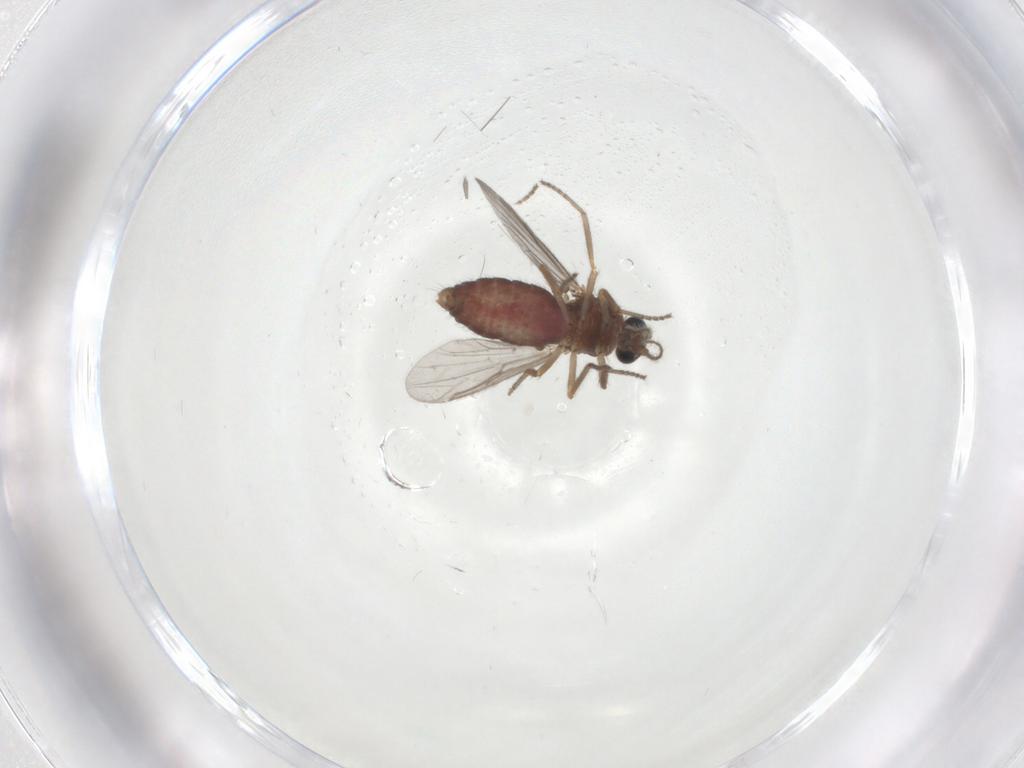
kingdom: Animalia
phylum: Arthropoda
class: Insecta
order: Diptera
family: Ceratopogonidae
